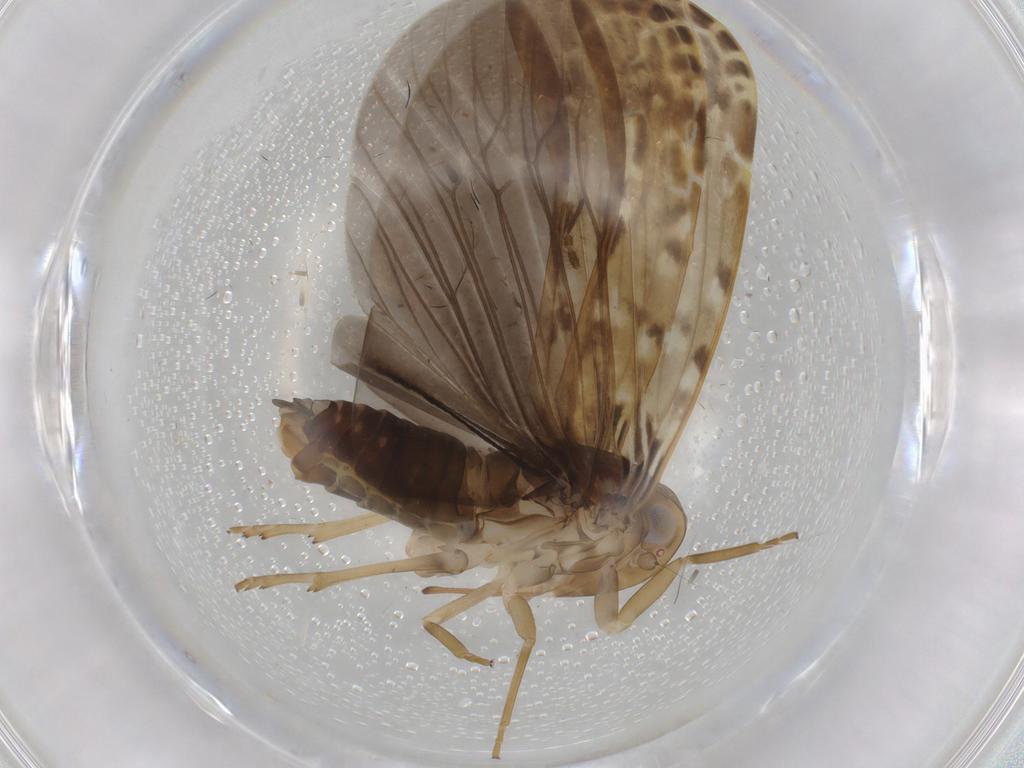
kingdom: Animalia
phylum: Arthropoda
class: Insecta
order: Hemiptera
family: Achilidae
